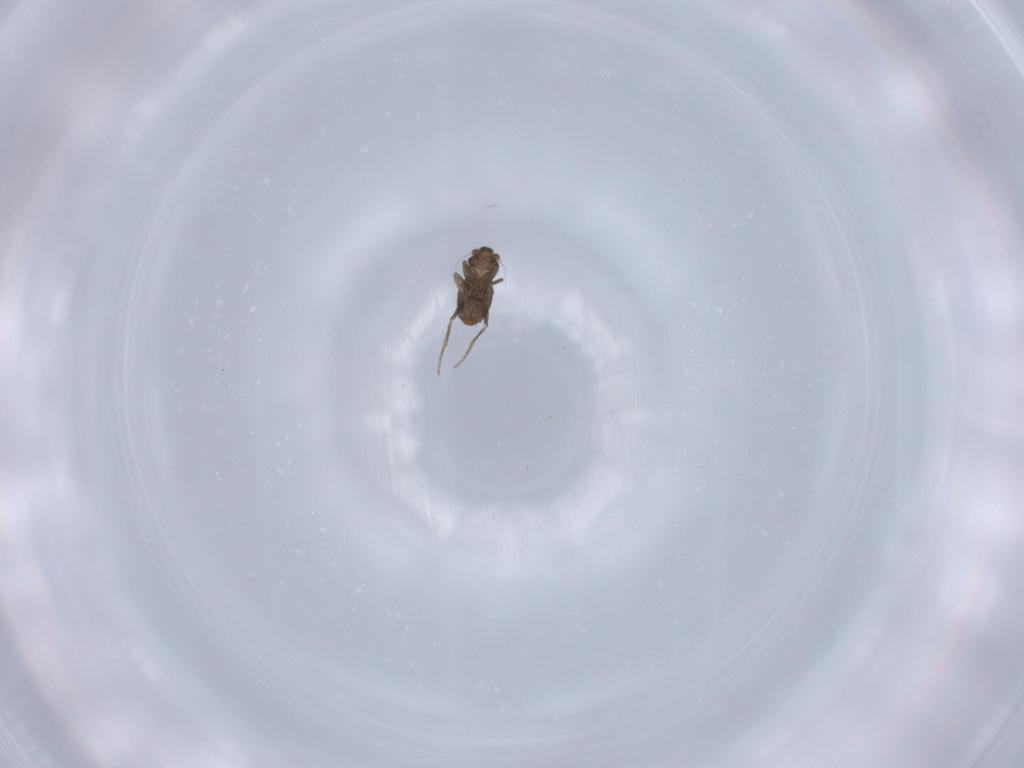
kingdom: Animalia
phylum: Arthropoda
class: Insecta
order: Diptera
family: Phoridae
